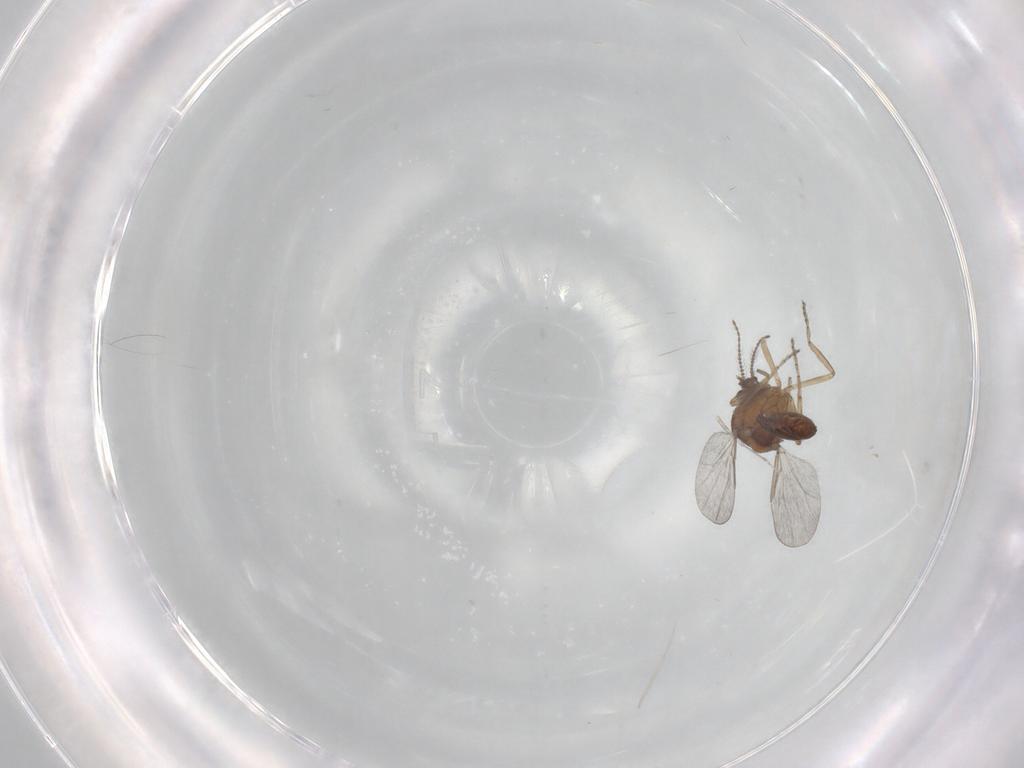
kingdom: Animalia
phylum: Arthropoda
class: Insecta
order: Diptera
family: Ceratopogonidae
